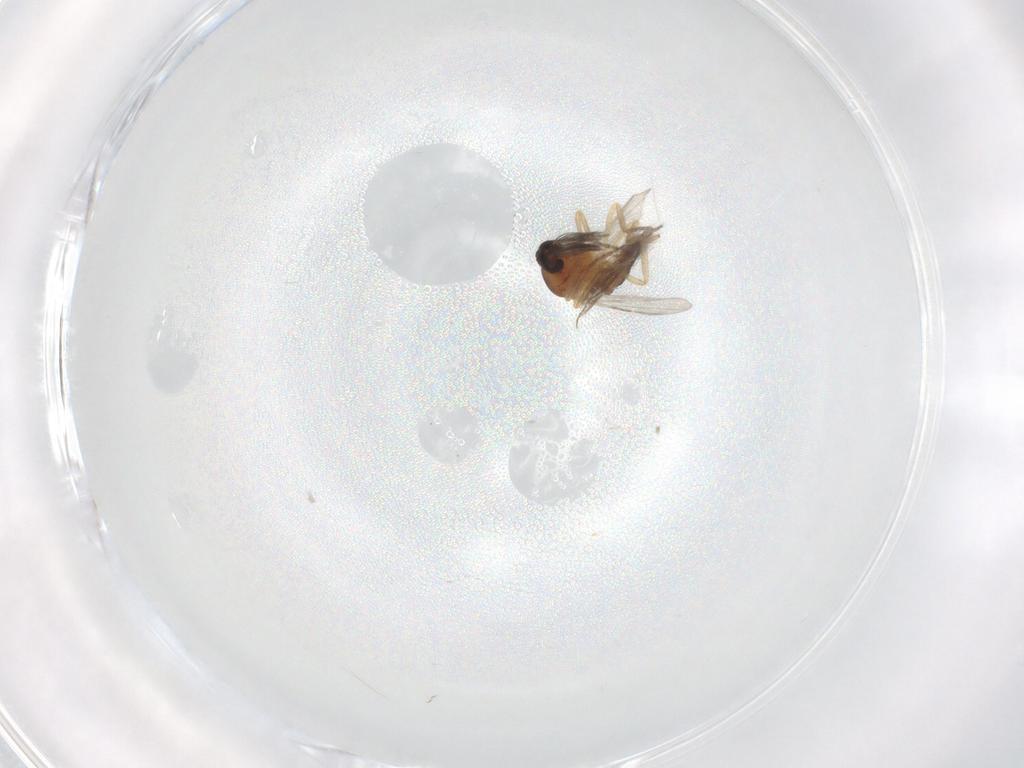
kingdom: Animalia
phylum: Arthropoda
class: Insecta
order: Diptera
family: Ceratopogonidae
